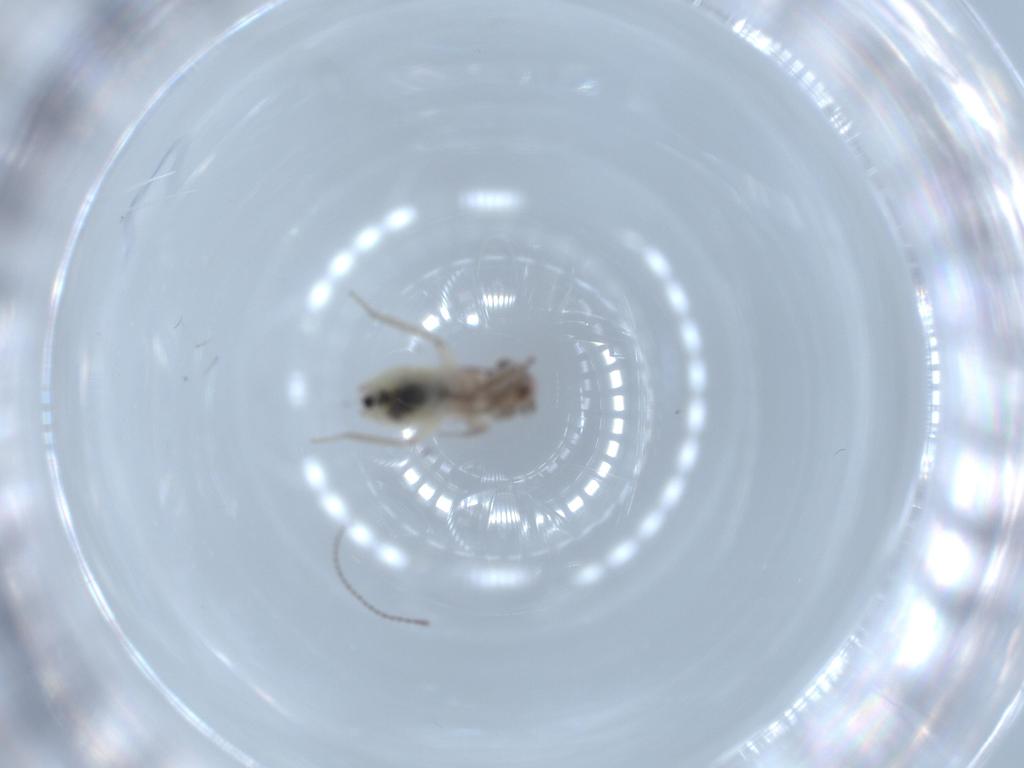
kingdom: Animalia
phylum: Arthropoda
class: Insecta
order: Psocodea
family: Lepidopsocidae
